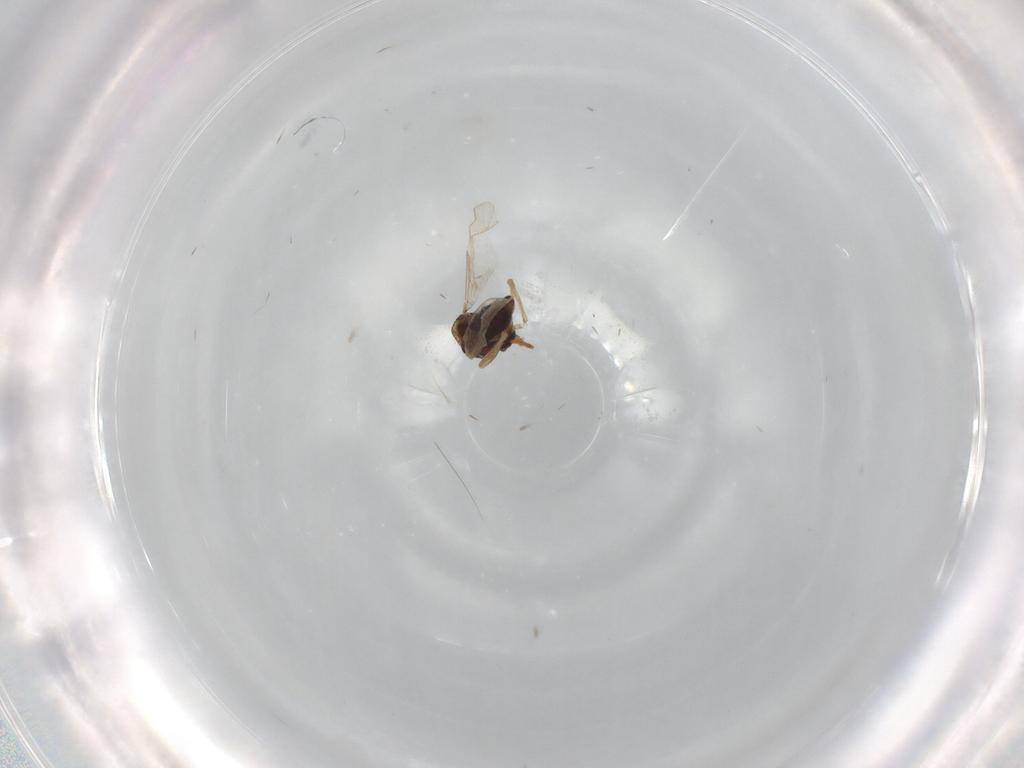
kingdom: Animalia
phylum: Arthropoda
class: Insecta
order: Diptera
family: Ceratopogonidae
